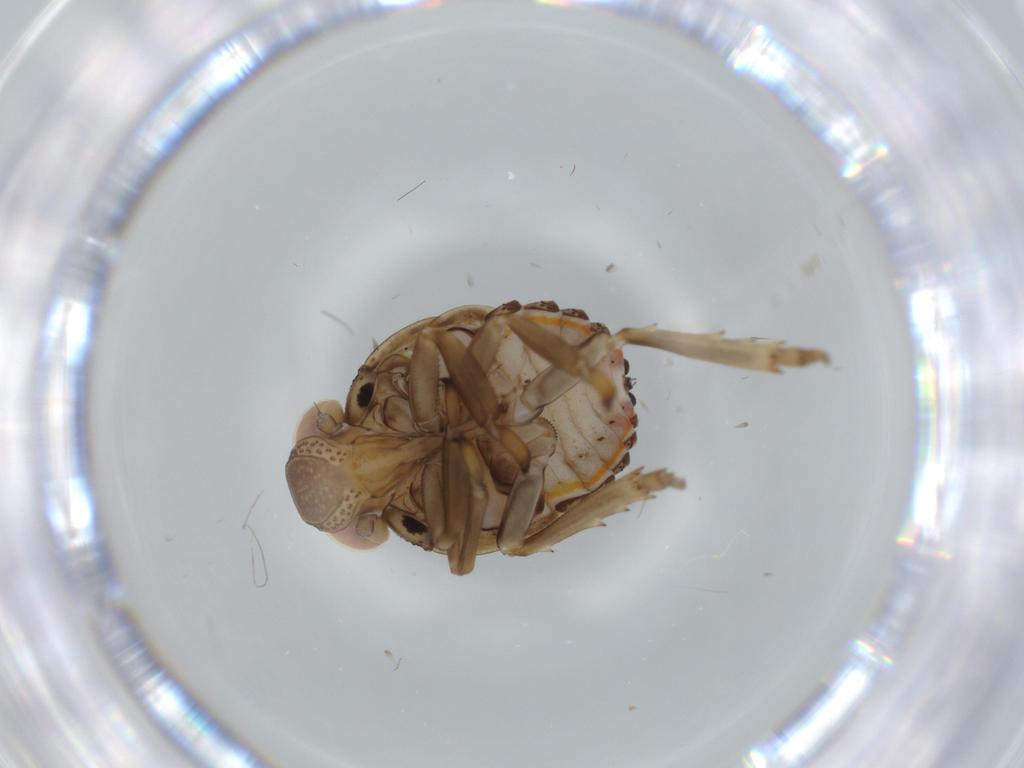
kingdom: Animalia
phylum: Arthropoda
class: Insecta
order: Hemiptera
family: Issidae
